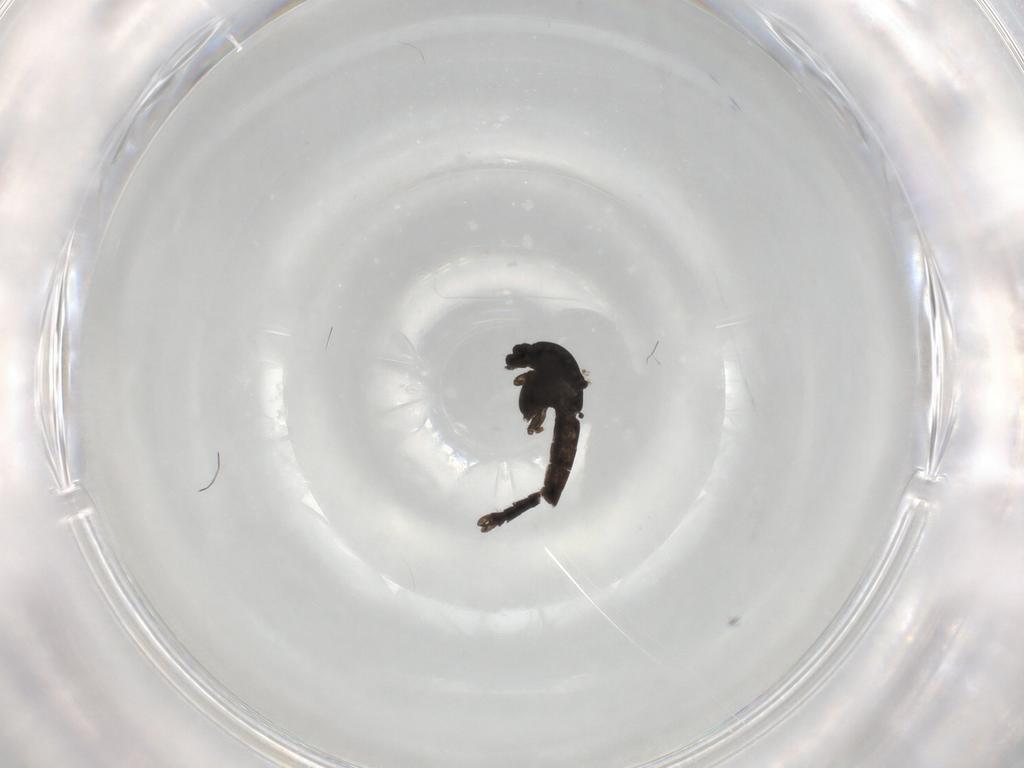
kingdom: Animalia
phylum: Arthropoda
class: Insecta
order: Diptera
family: Chironomidae
